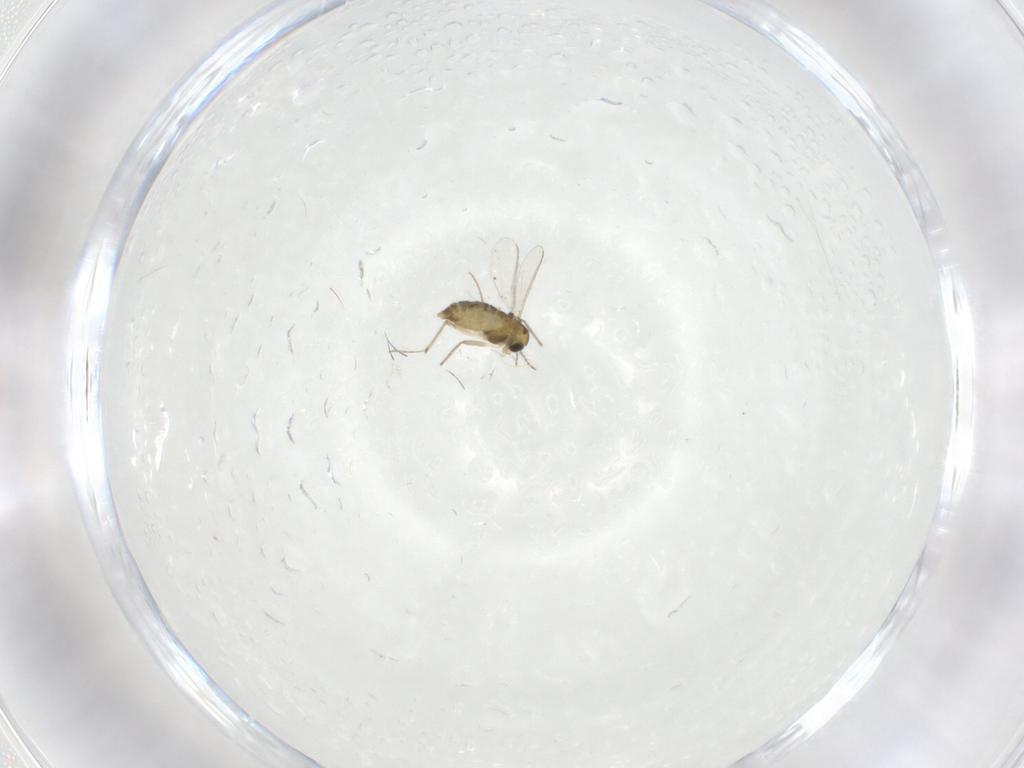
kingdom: Animalia
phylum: Arthropoda
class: Insecta
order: Diptera
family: Chironomidae
